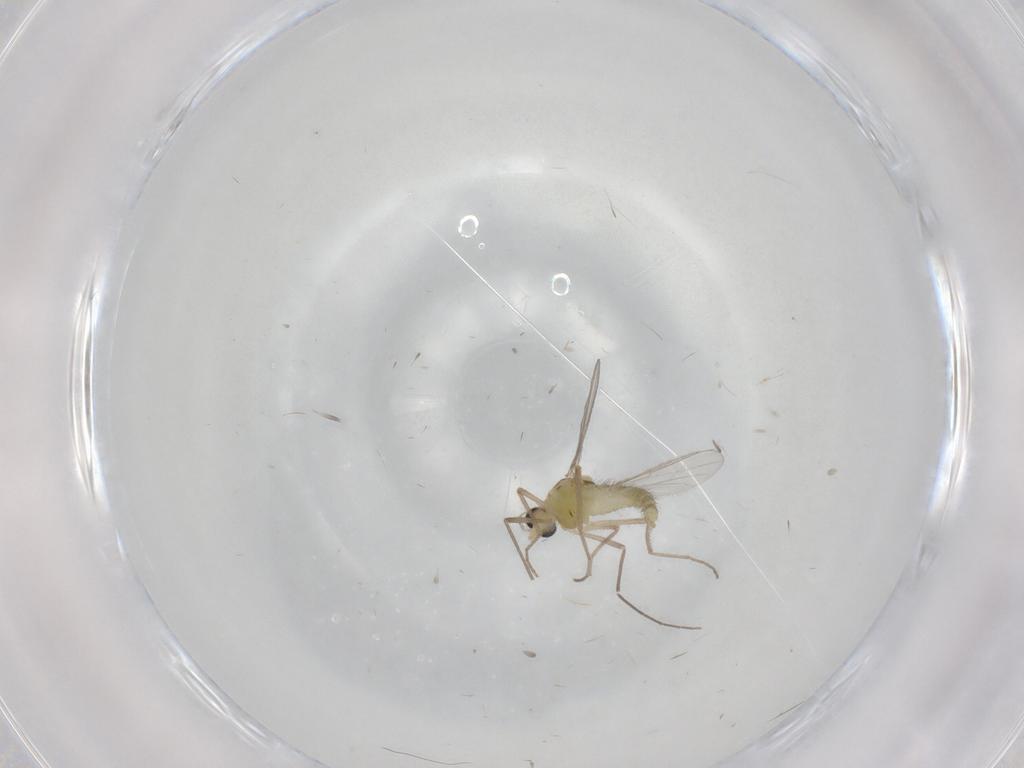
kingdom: Animalia
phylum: Arthropoda
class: Insecta
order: Diptera
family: Chironomidae
